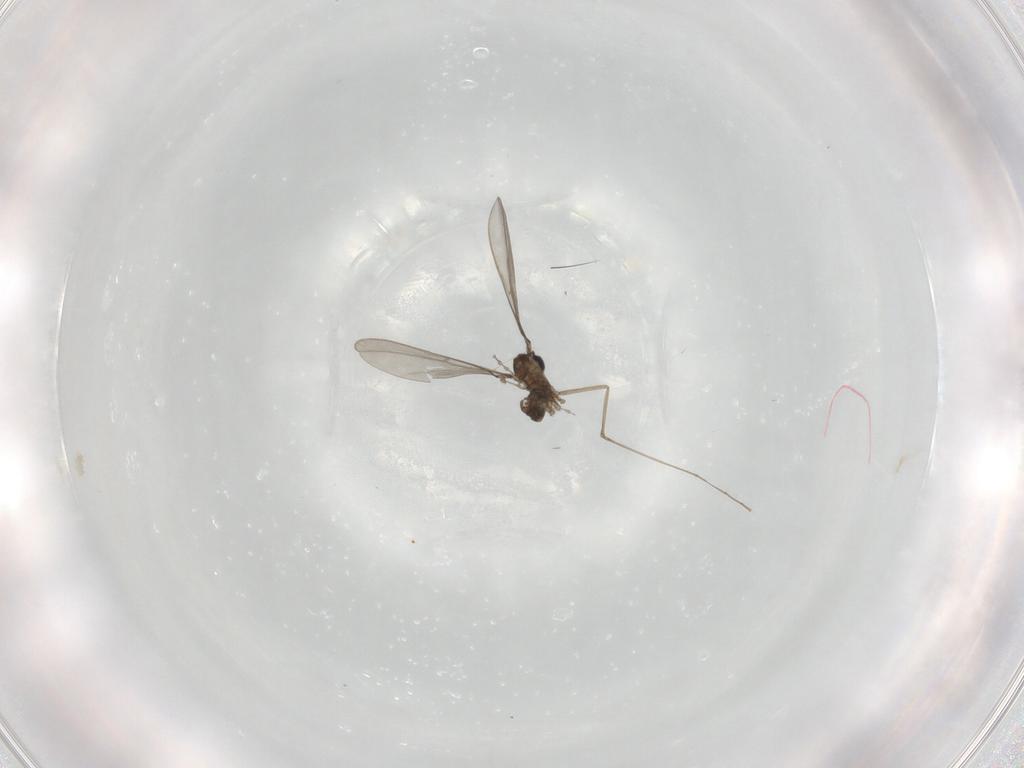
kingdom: Animalia
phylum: Arthropoda
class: Insecta
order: Diptera
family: Cecidomyiidae
